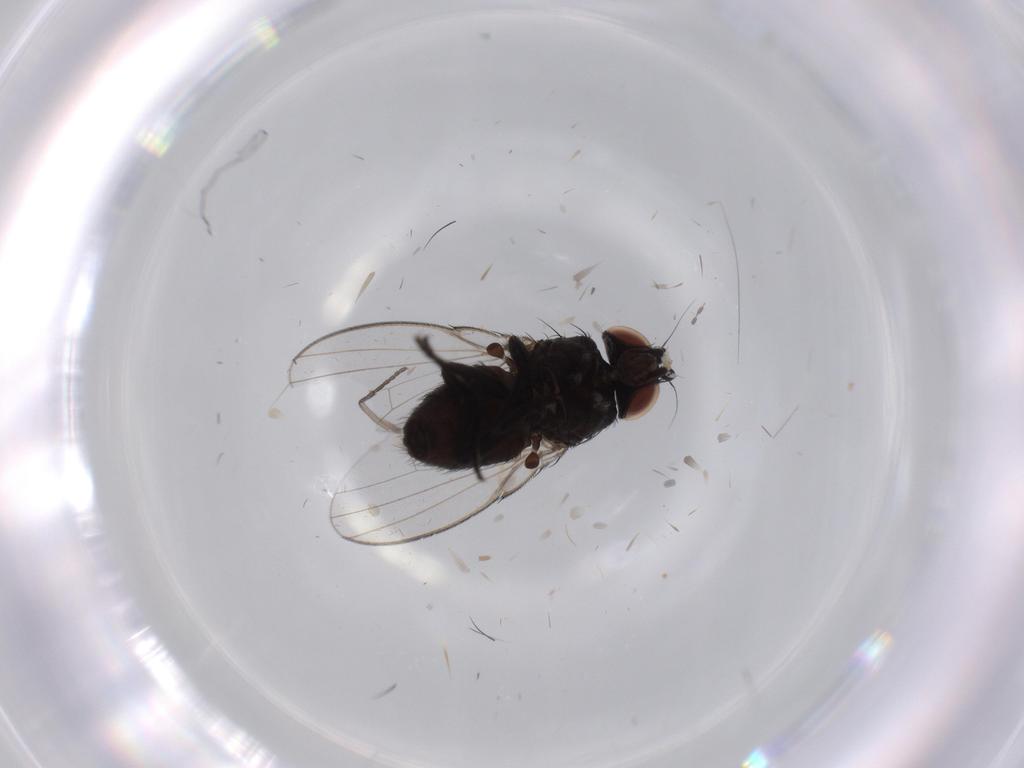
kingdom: Animalia
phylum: Arthropoda
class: Insecta
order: Diptera
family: Milichiidae
